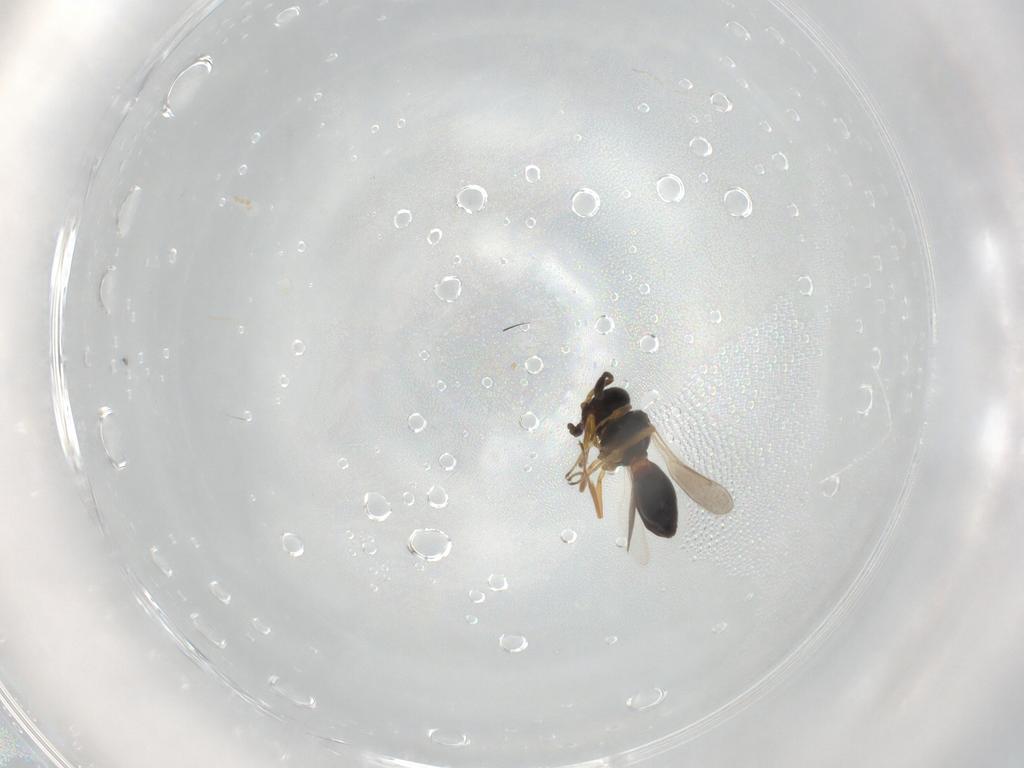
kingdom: Animalia
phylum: Arthropoda
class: Insecta
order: Hymenoptera
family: Scelionidae
